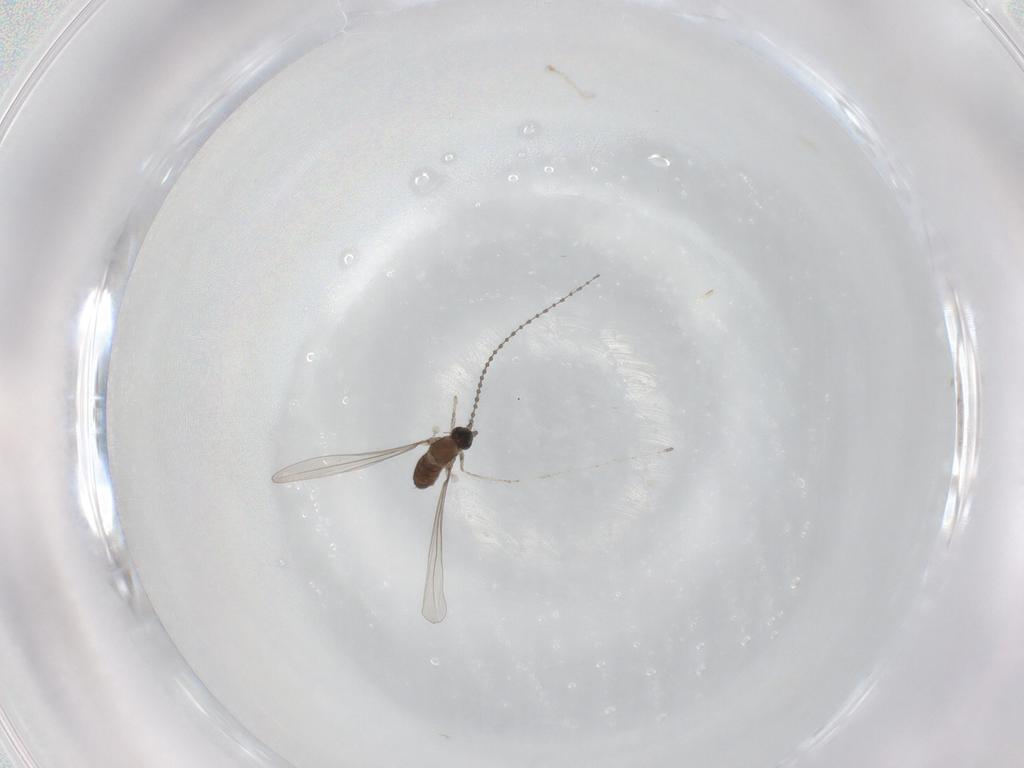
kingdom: Animalia
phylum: Arthropoda
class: Insecta
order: Diptera
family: Cecidomyiidae
